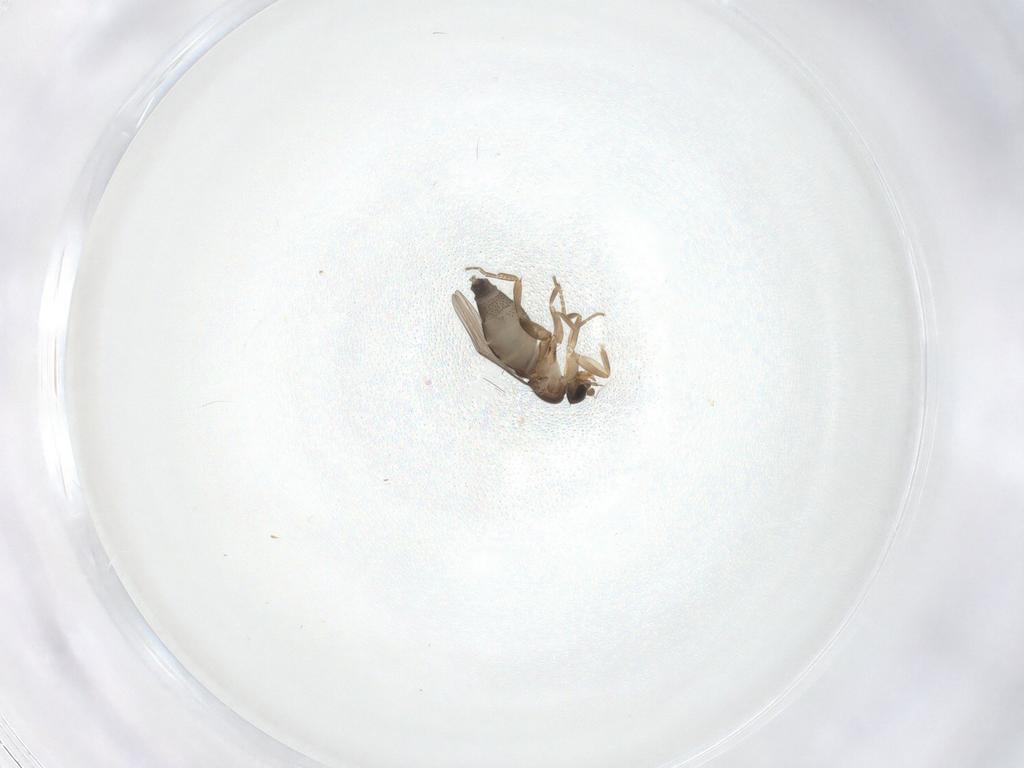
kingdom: Animalia
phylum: Arthropoda
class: Insecta
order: Diptera
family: Phoridae
